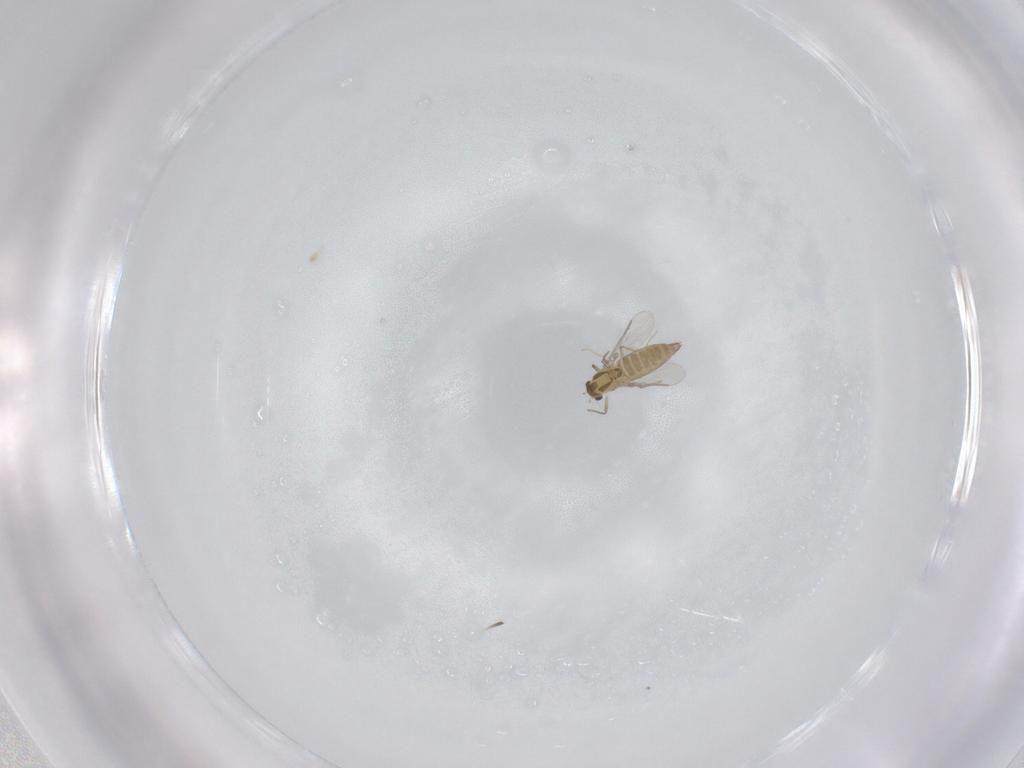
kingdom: Animalia
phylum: Arthropoda
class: Insecta
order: Diptera
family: Chironomidae
